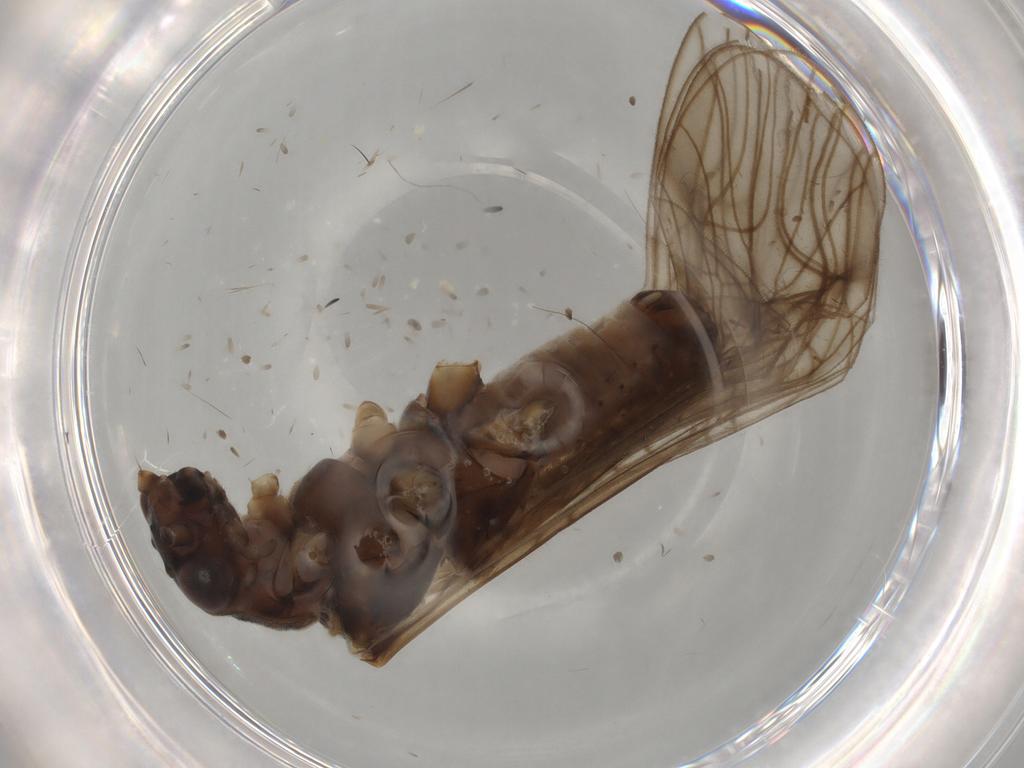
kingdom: Animalia
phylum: Arthropoda
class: Insecta
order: Plecoptera
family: Nemouridae
